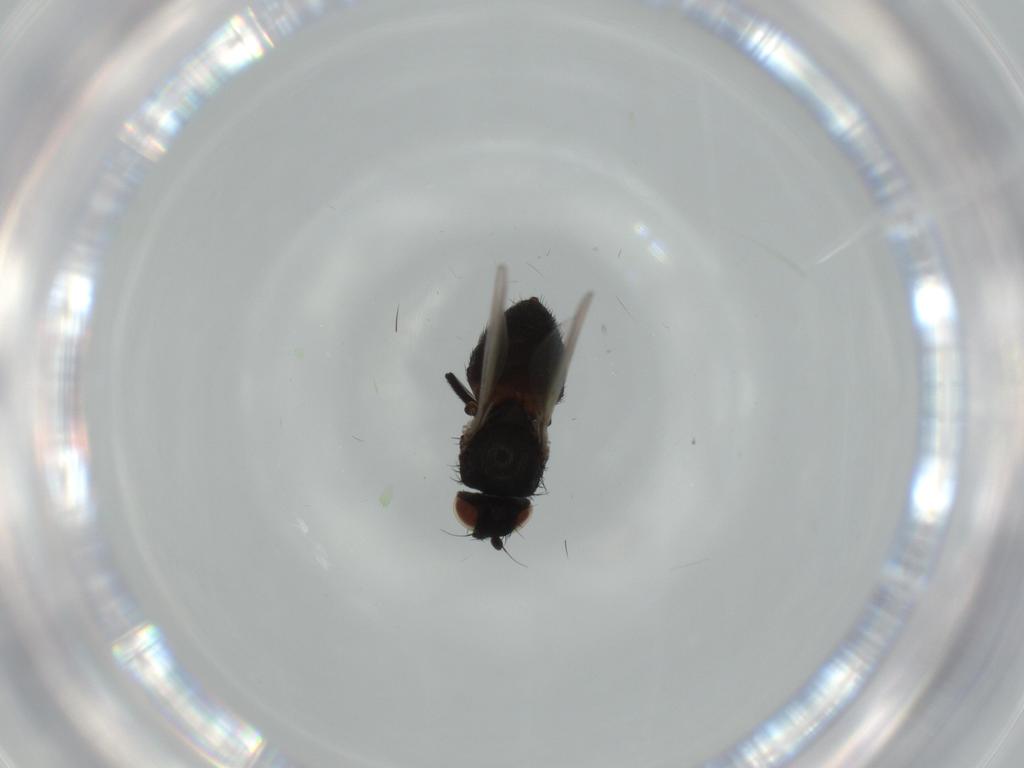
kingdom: Animalia
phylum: Arthropoda
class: Insecta
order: Diptera
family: Milichiidae
